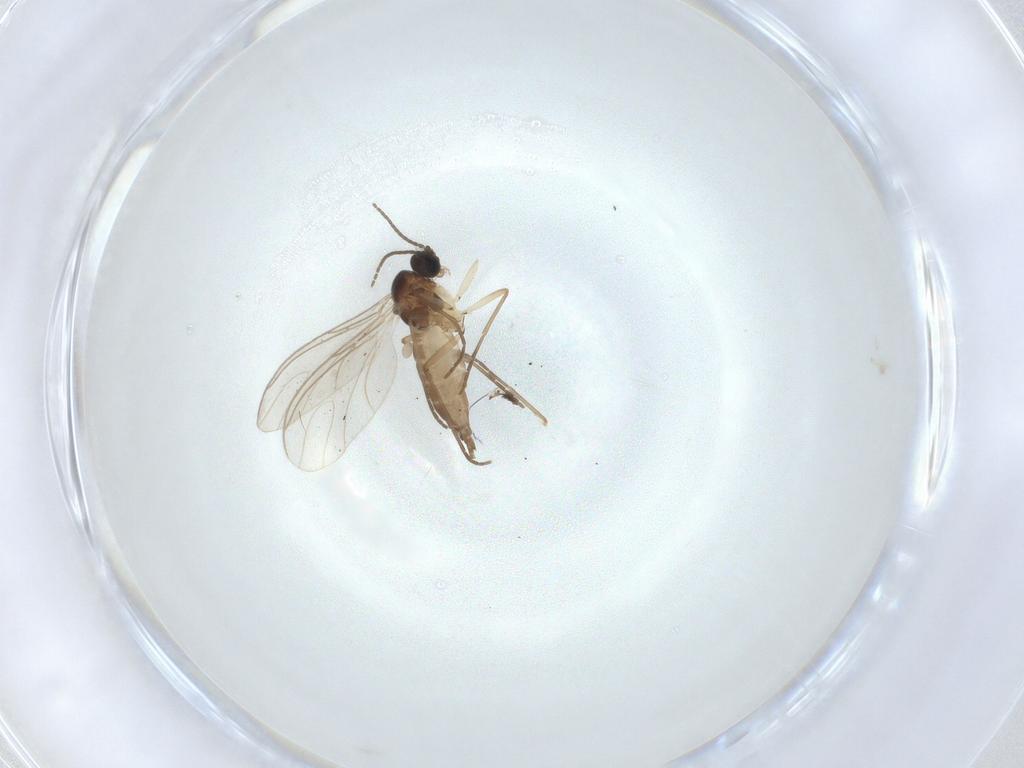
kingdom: Animalia
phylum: Arthropoda
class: Insecta
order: Diptera
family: Sciaridae
